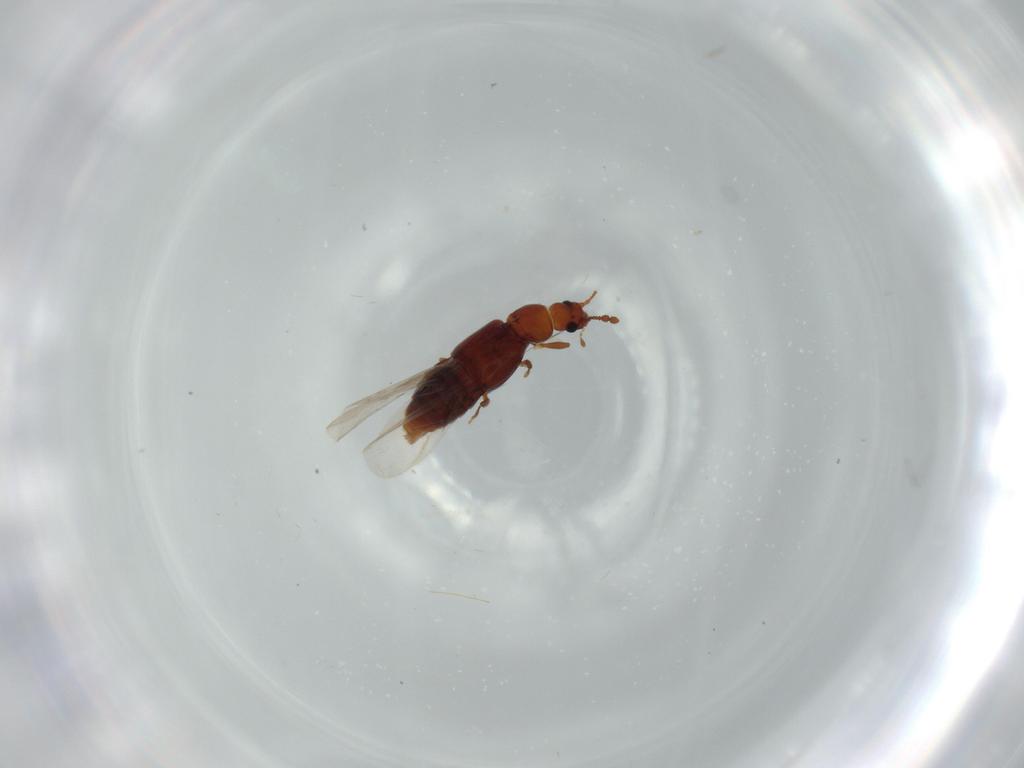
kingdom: Animalia
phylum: Arthropoda
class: Insecta
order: Coleoptera
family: Staphylinidae
